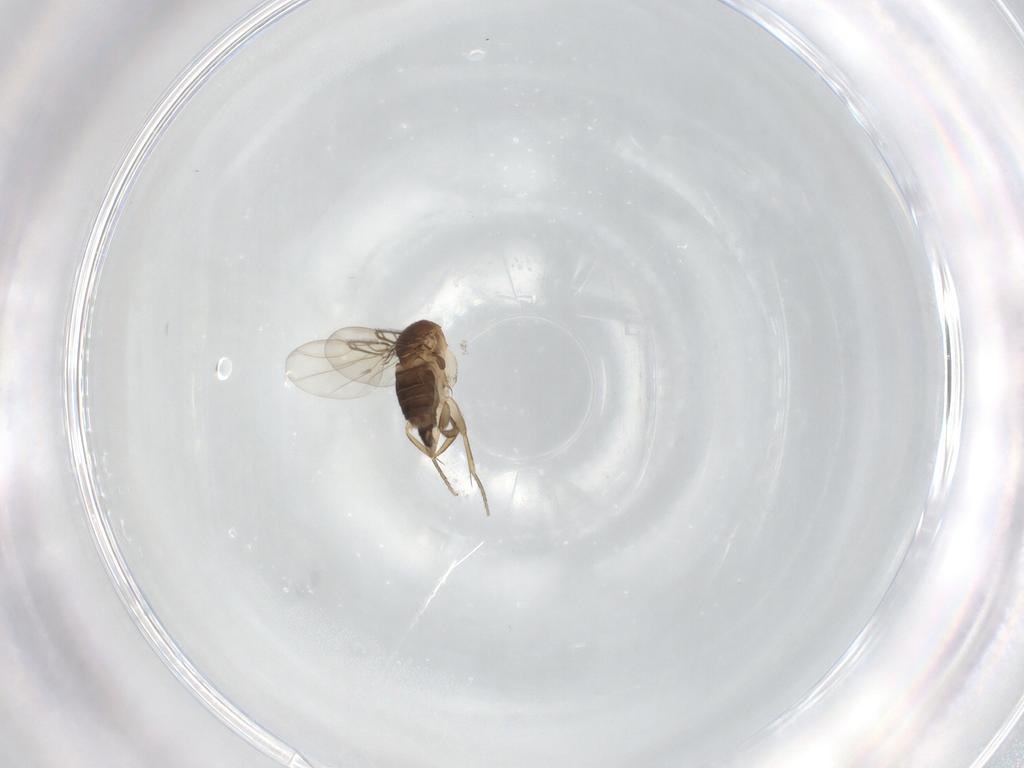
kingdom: Animalia
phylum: Arthropoda
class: Insecta
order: Diptera
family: Phoridae
